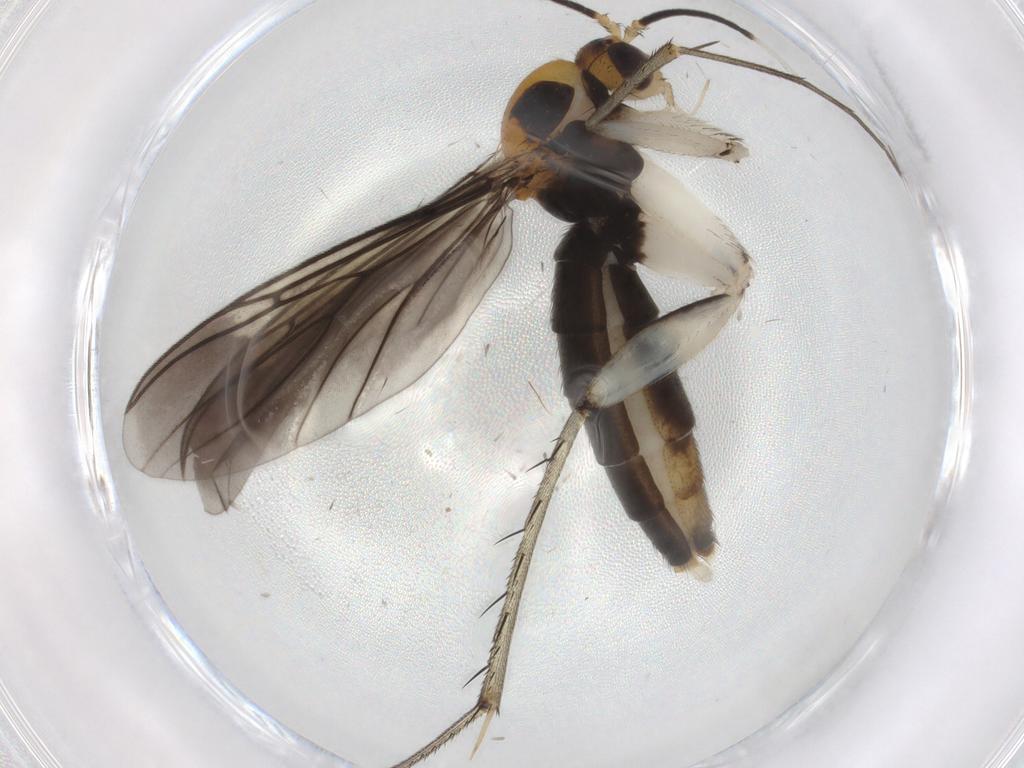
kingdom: Animalia
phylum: Arthropoda
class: Insecta
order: Diptera
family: Mycetophilidae
